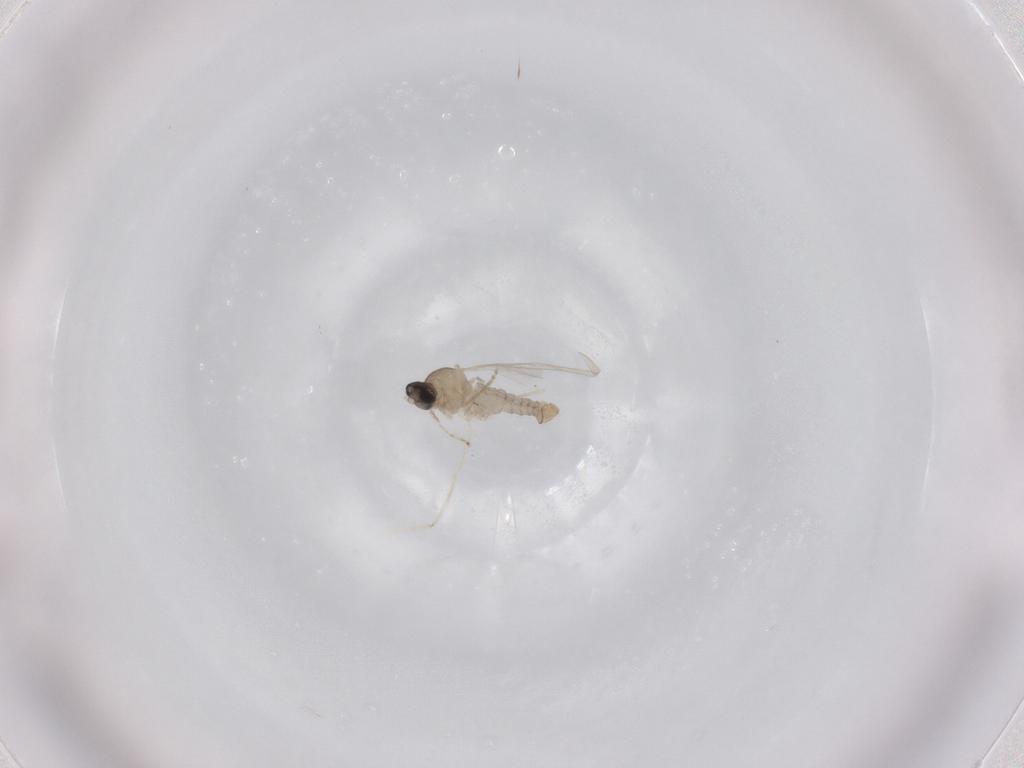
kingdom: Animalia
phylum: Arthropoda
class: Insecta
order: Diptera
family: Cecidomyiidae
